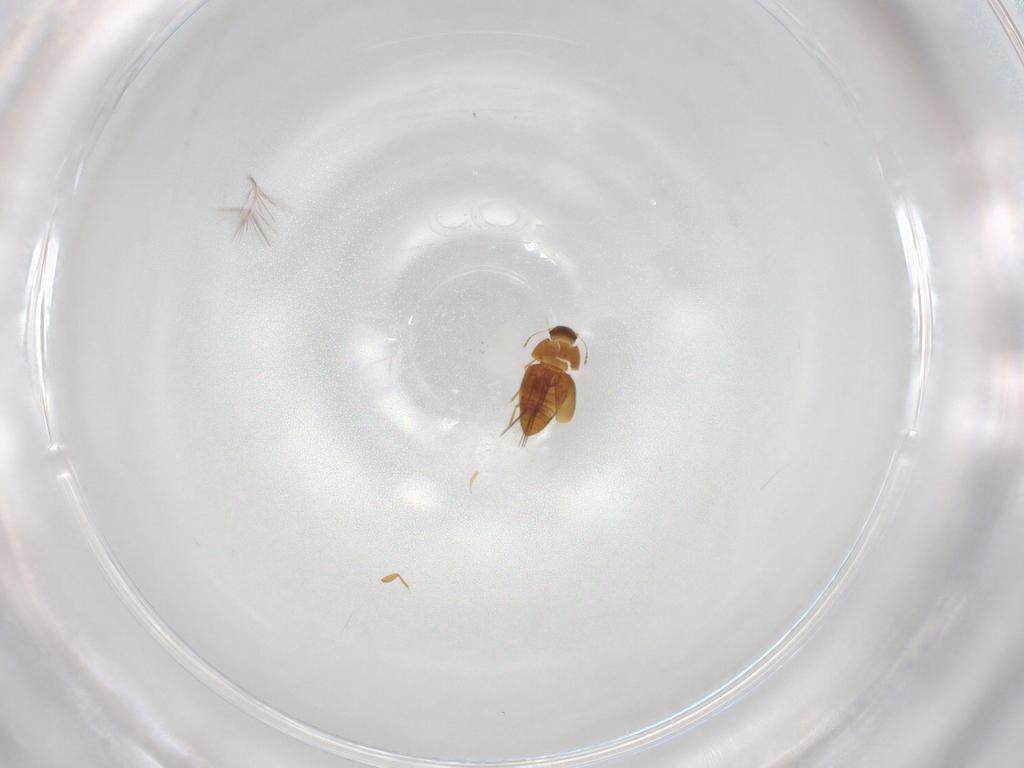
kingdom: Animalia
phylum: Arthropoda
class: Insecta
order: Coleoptera
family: Ptiliidae
